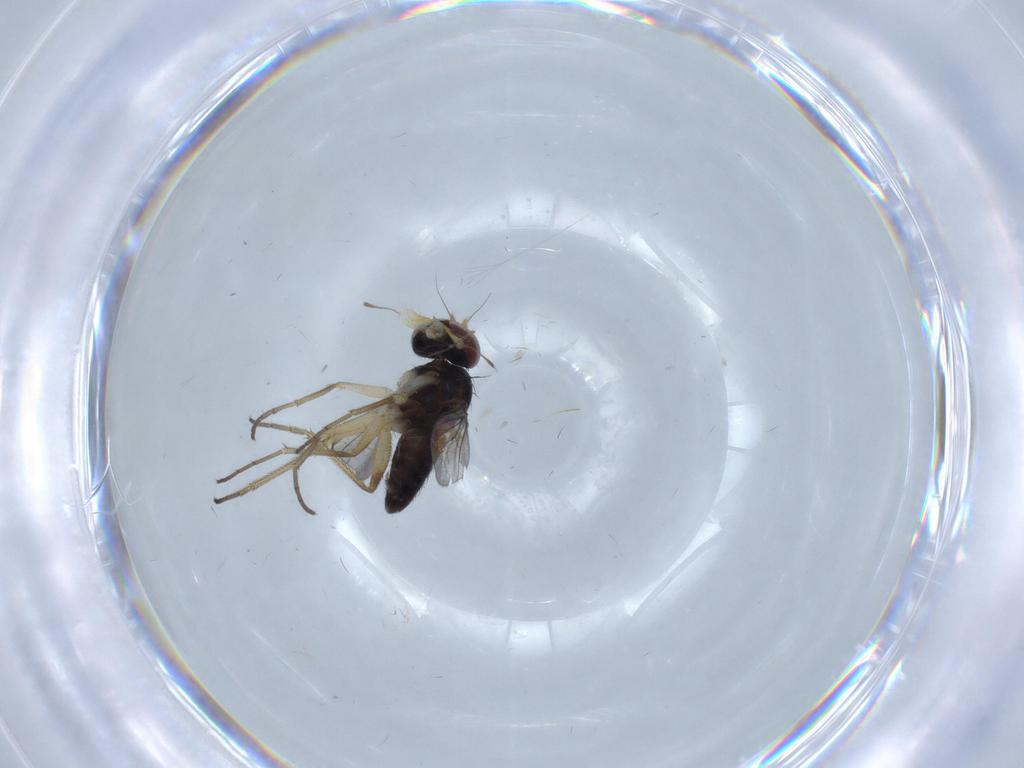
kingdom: Animalia
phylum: Arthropoda
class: Insecta
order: Diptera
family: Dolichopodidae
